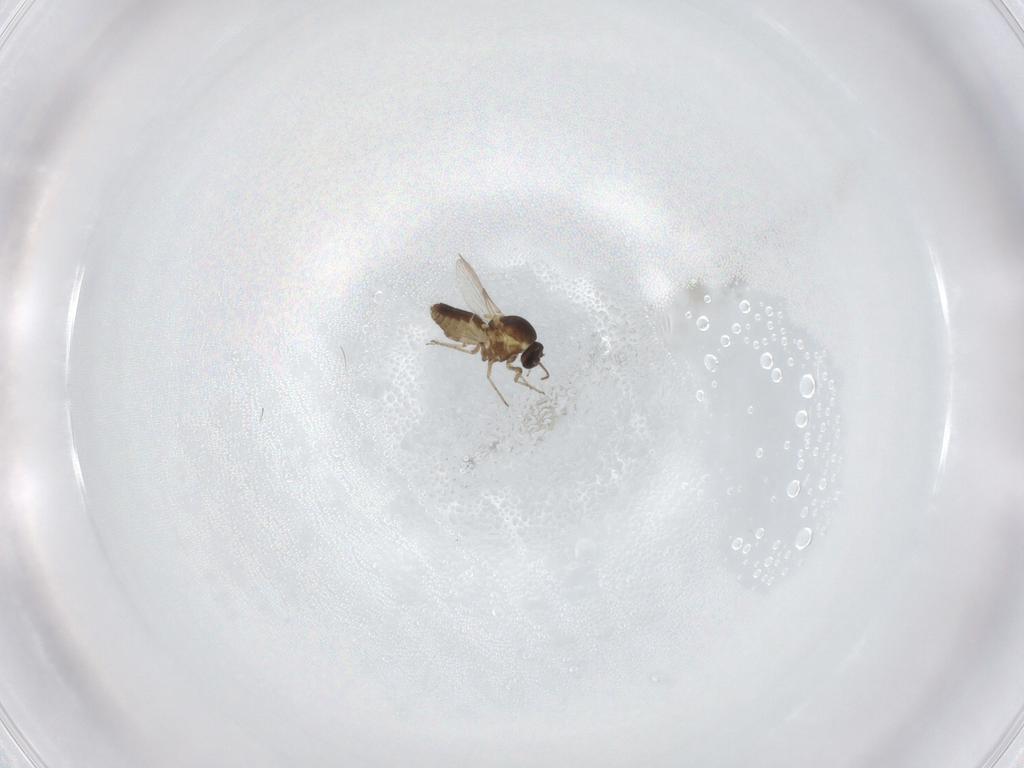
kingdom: Animalia
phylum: Arthropoda
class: Insecta
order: Diptera
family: Ceratopogonidae
